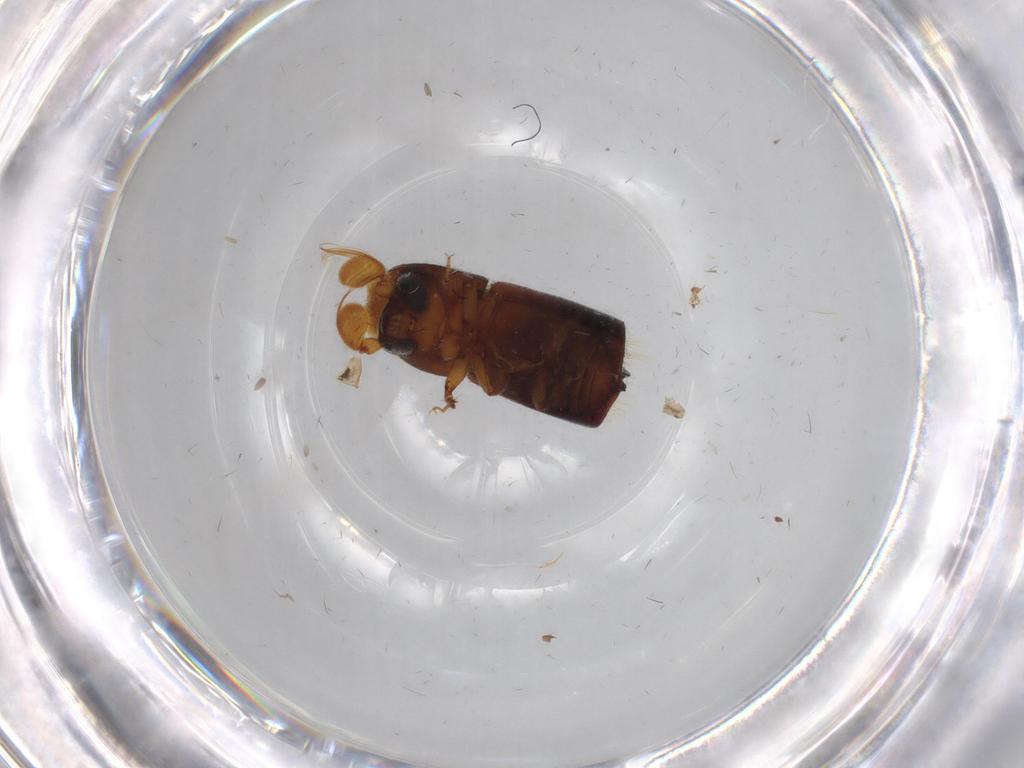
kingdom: Animalia
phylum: Arthropoda
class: Insecta
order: Coleoptera
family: Curculionidae
